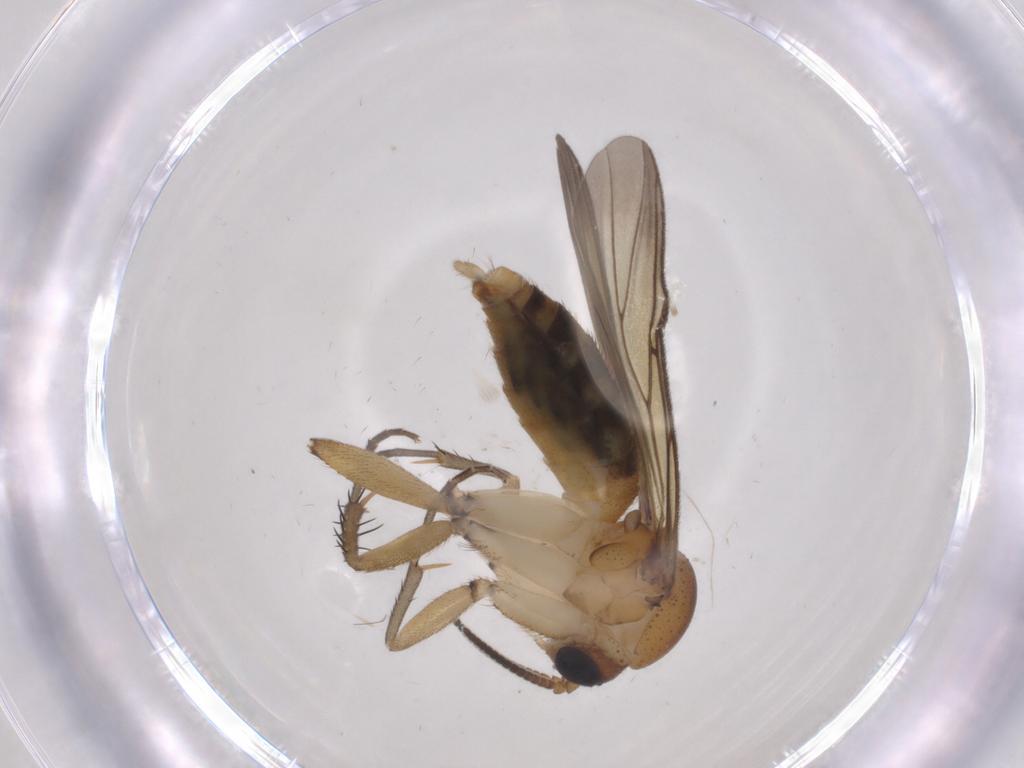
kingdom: Animalia
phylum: Arthropoda
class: Insecta
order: Diptera
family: Mycetophilidae
